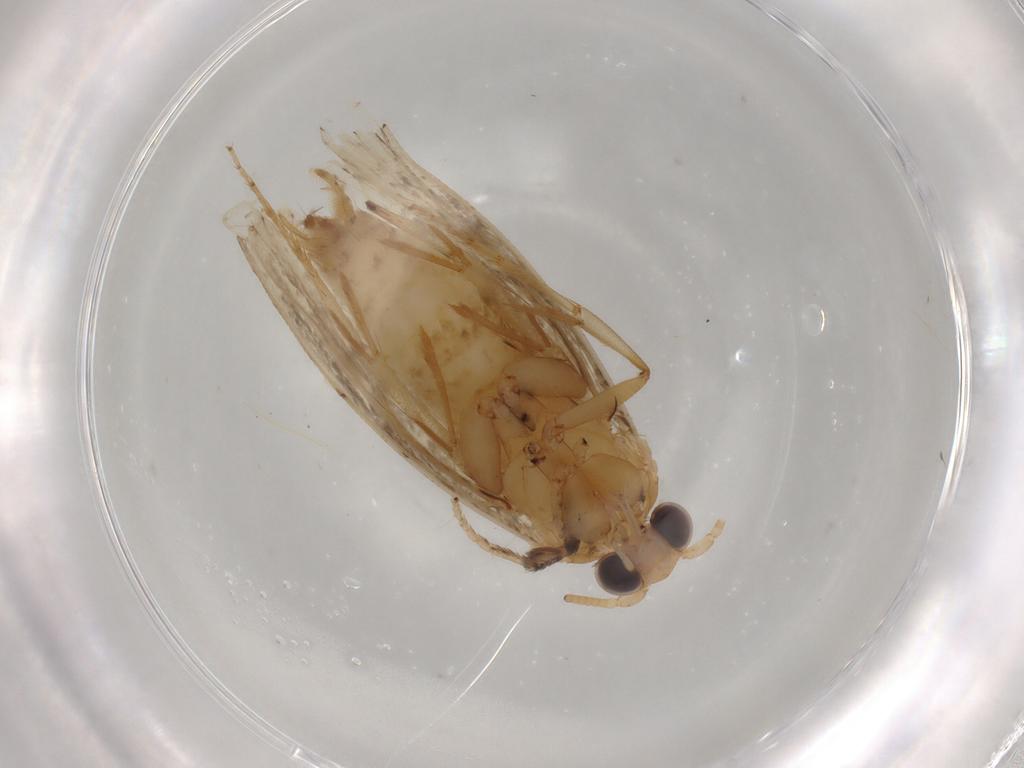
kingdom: Animalia
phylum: Arthropoda
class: Insecta
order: Lepidoptera
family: Tineidae
